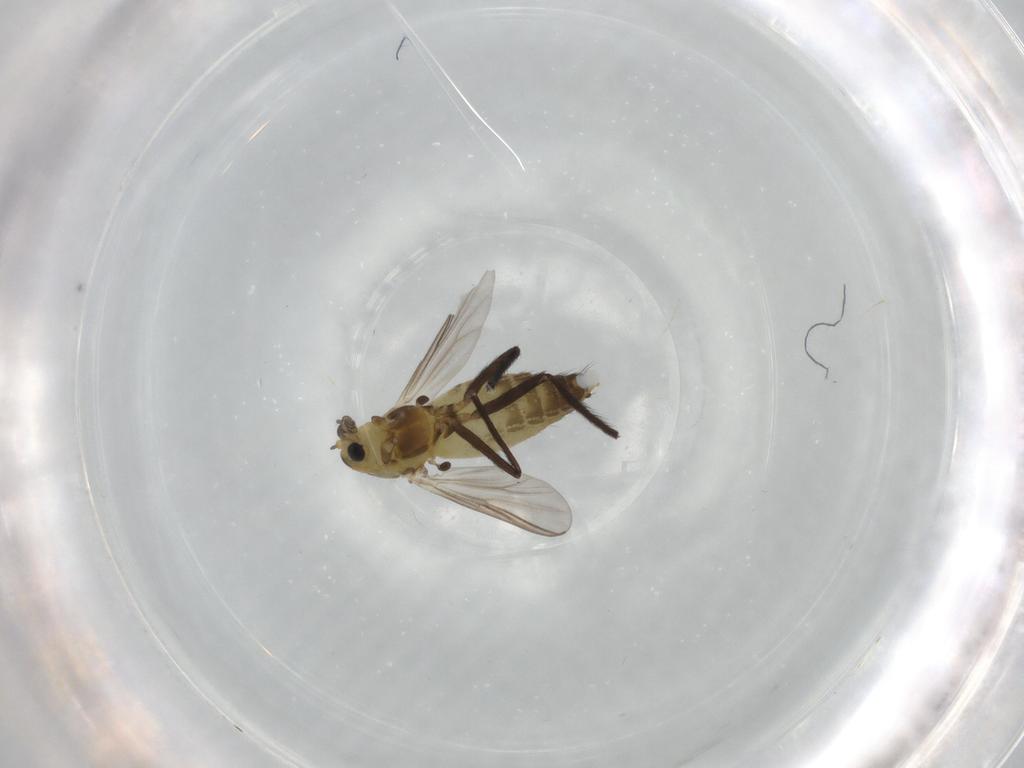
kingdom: Animalia
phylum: Arthropoda
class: Insecta
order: Diptera
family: Chironomidae
